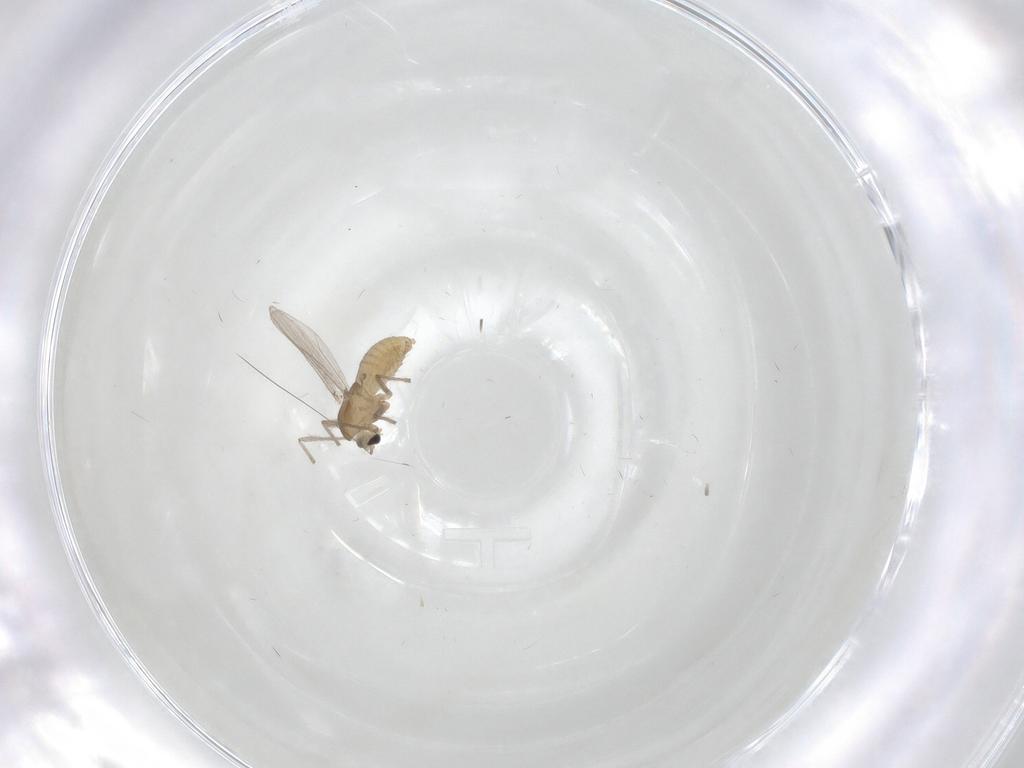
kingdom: Animalia
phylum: Arthropoda
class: Insecta
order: Diptera
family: Chironomidae
